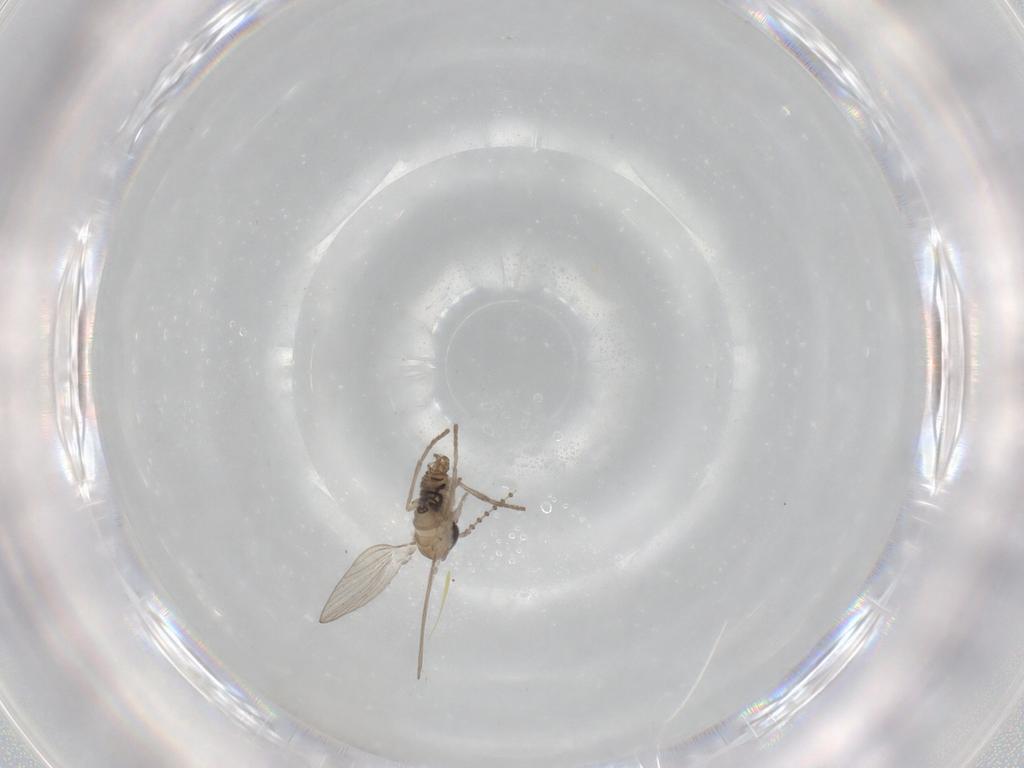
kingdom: Animalia
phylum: Arthropoda
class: Insecta
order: Diptera
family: Psychodidae
